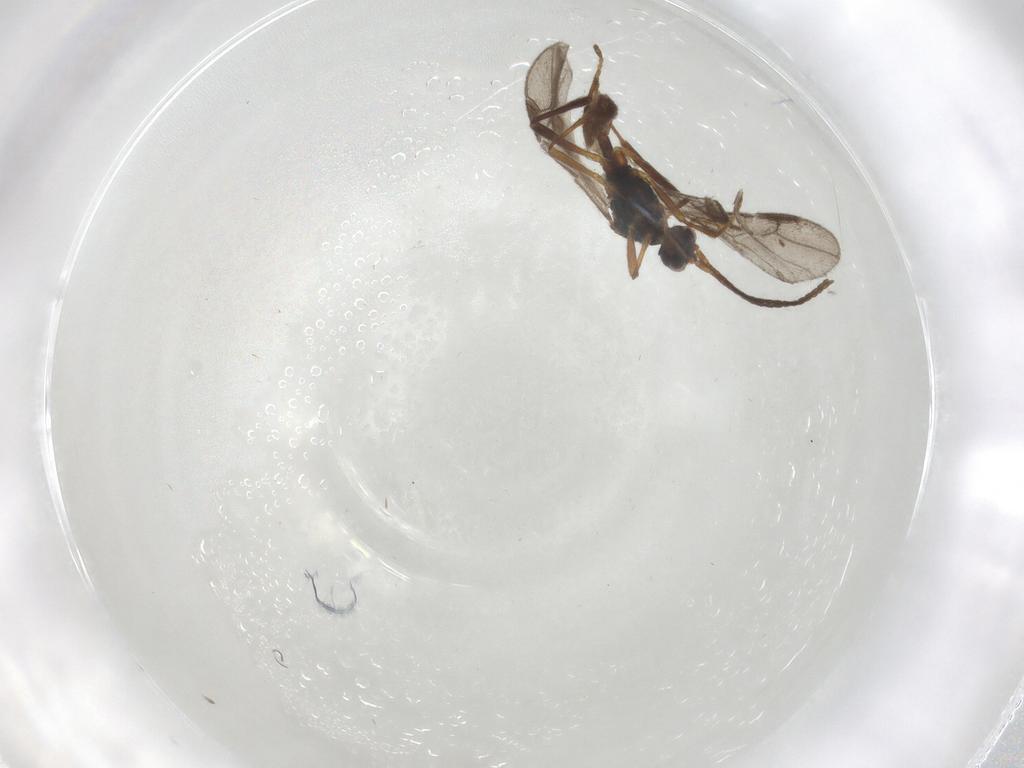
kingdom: Animalia
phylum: Arthropoda
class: Insecta
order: Diptera
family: Phoridae
